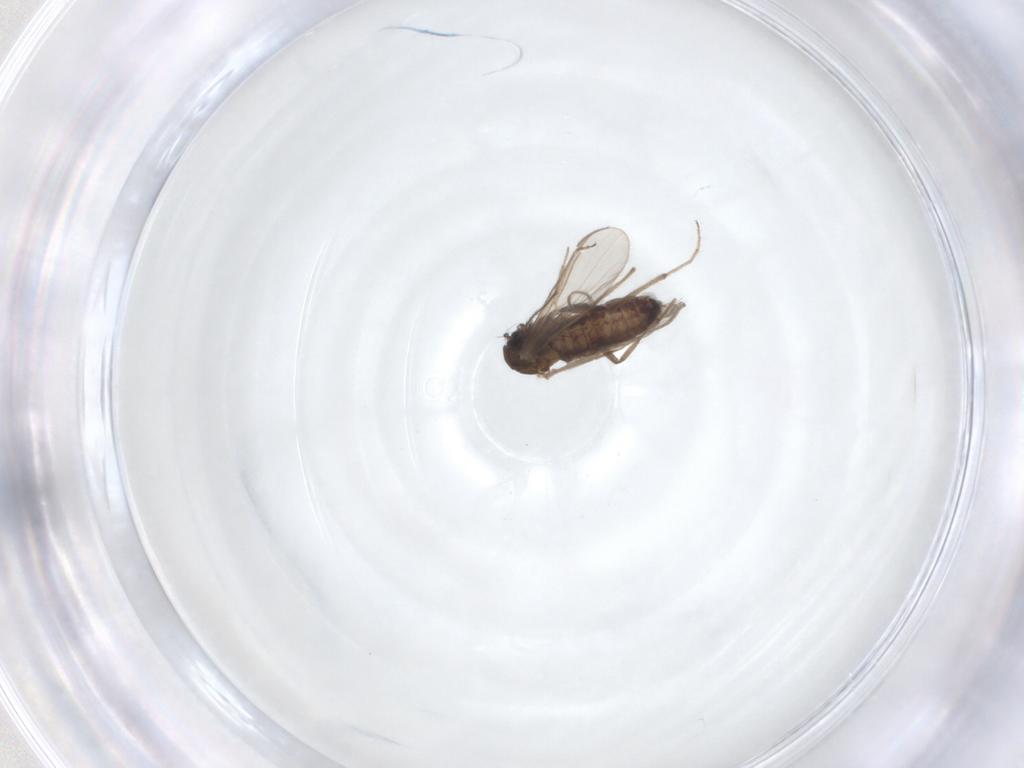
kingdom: Animalia
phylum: Arthropoda
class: Insecta
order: Diptera
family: Chironomidae
